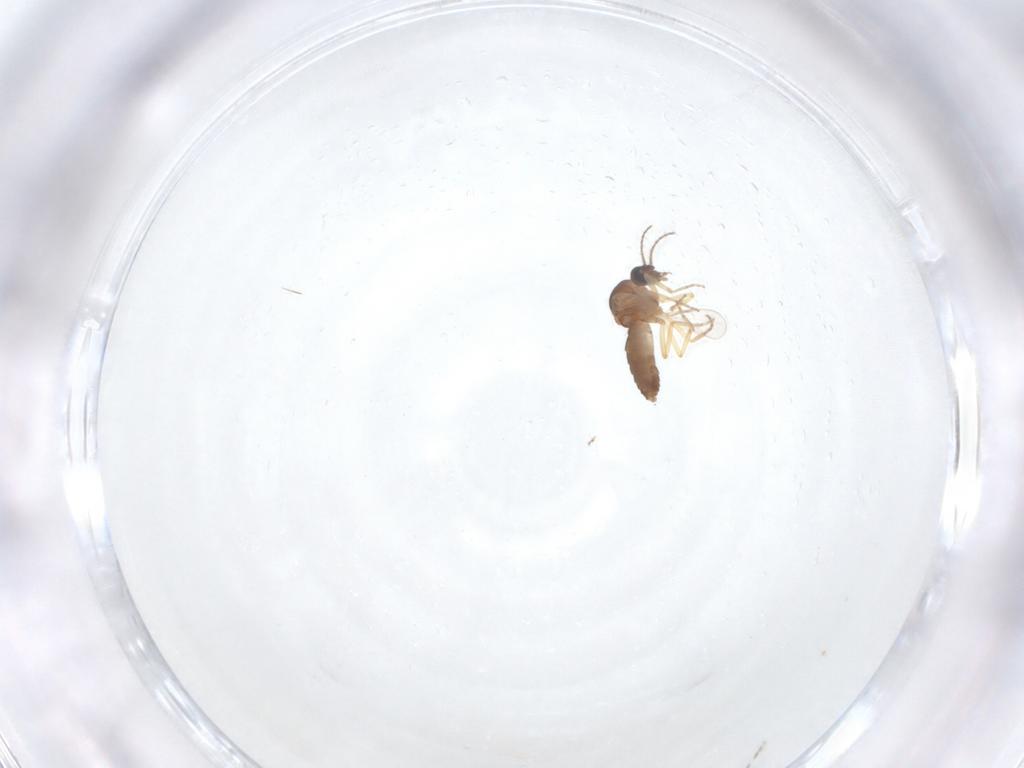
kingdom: Animalia
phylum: Arthropoda
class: Insecta
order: Diptera
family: Ceratopogonidae
